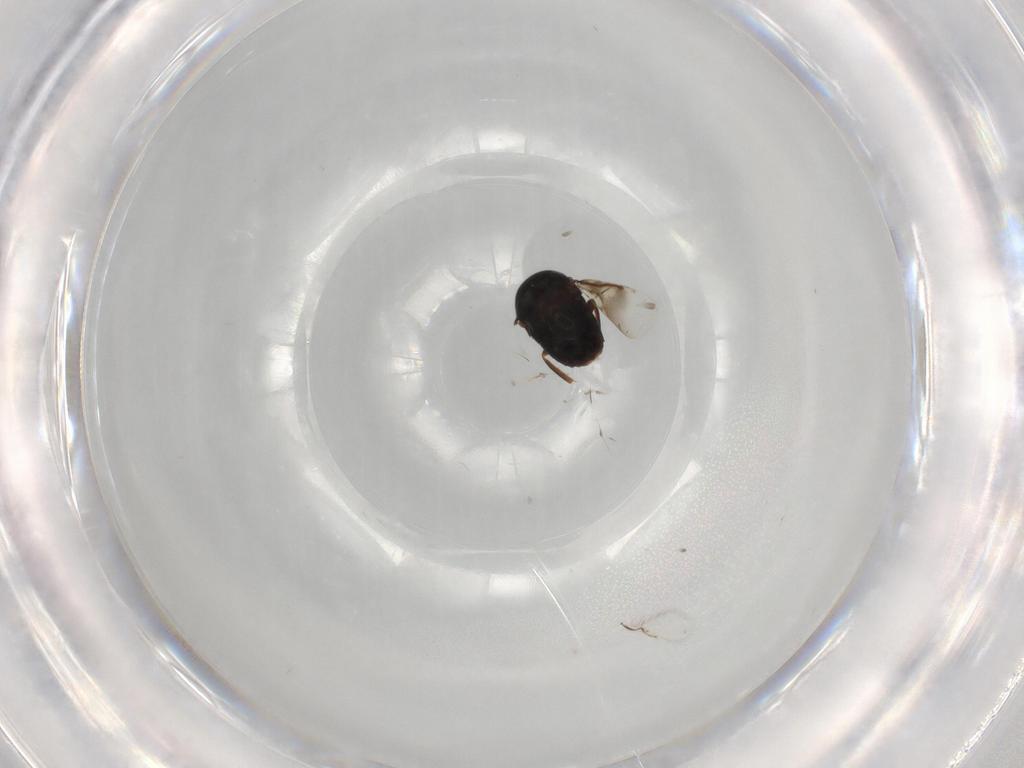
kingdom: Animalia
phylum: Arthropoda
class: Insecta
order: Hymenoptera
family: Signiphoridae
